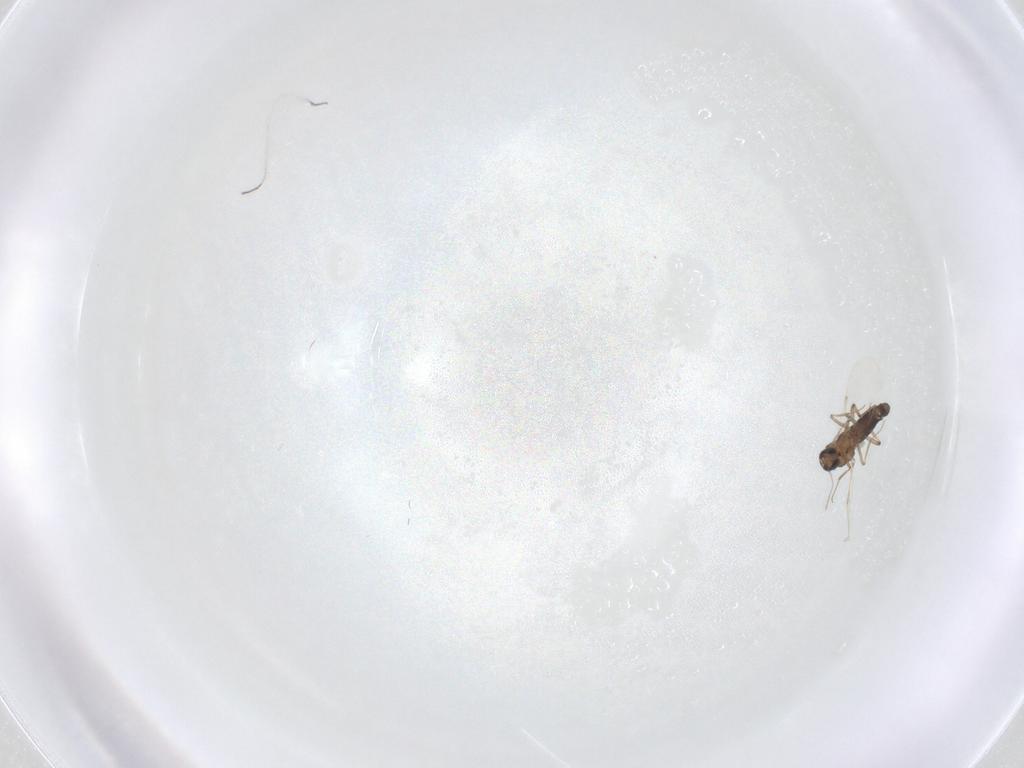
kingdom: Animalia
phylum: Arthropoda
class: Insecta
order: Diptera
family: Ceratopogonidae
